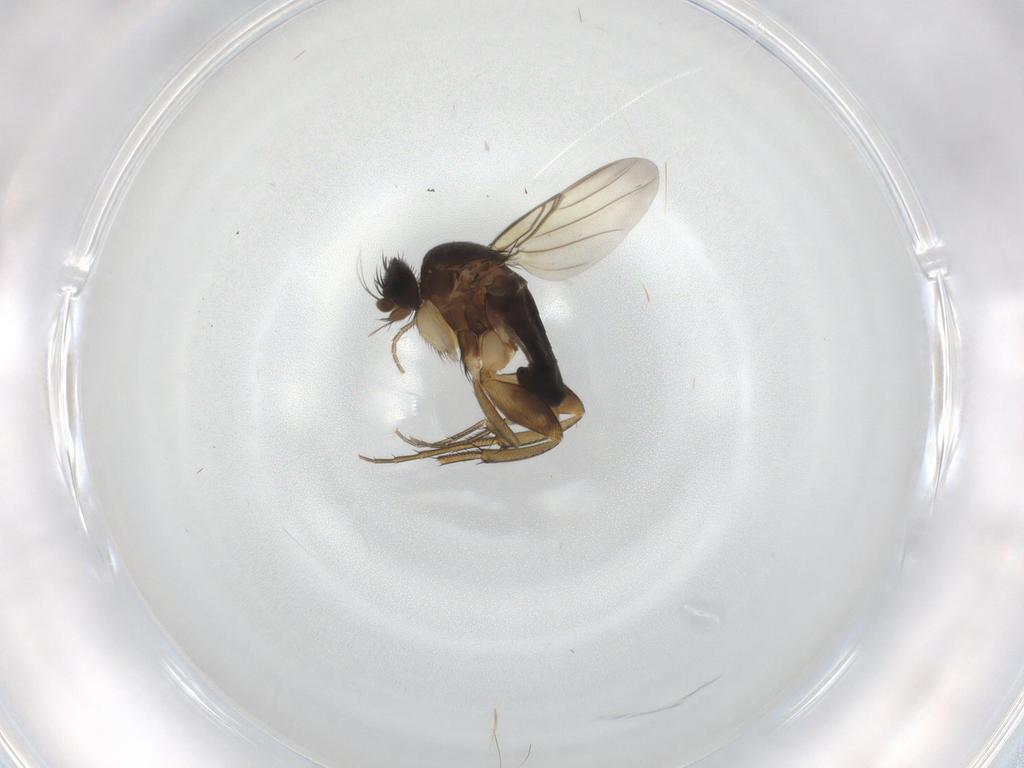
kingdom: Animalia
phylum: Arthropoda
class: Insecta
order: Diptera
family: Phoridae
